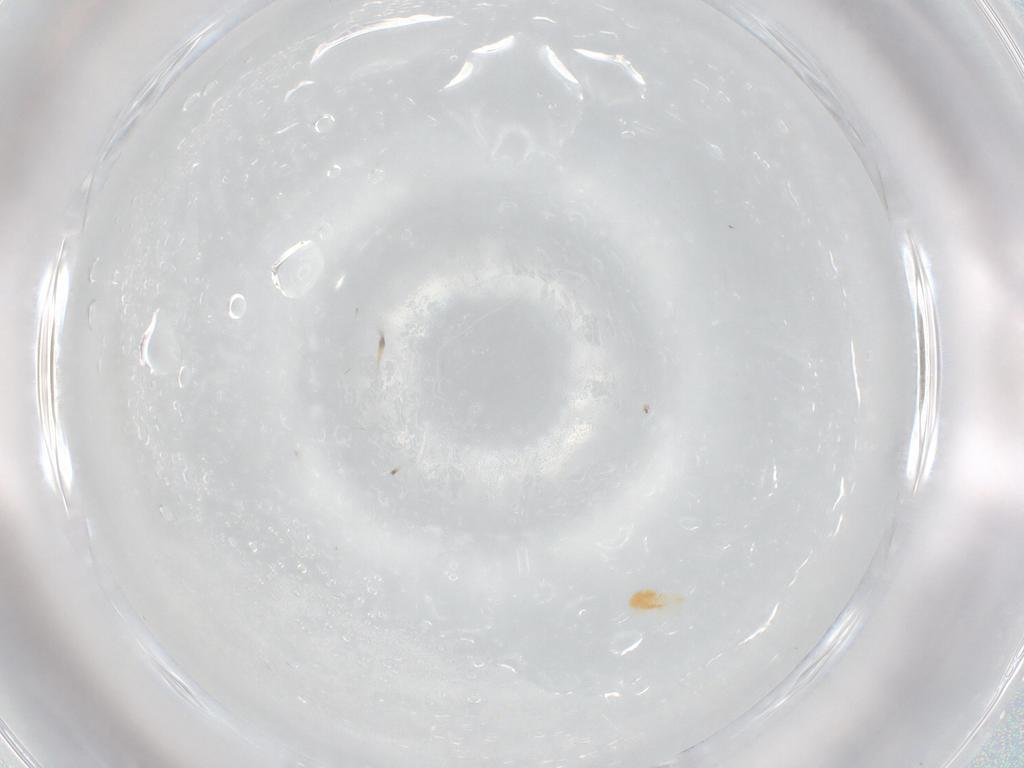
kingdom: Animalia
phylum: Arthropoda
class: Arachnida
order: Trombidiformes
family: Erythraeidae
